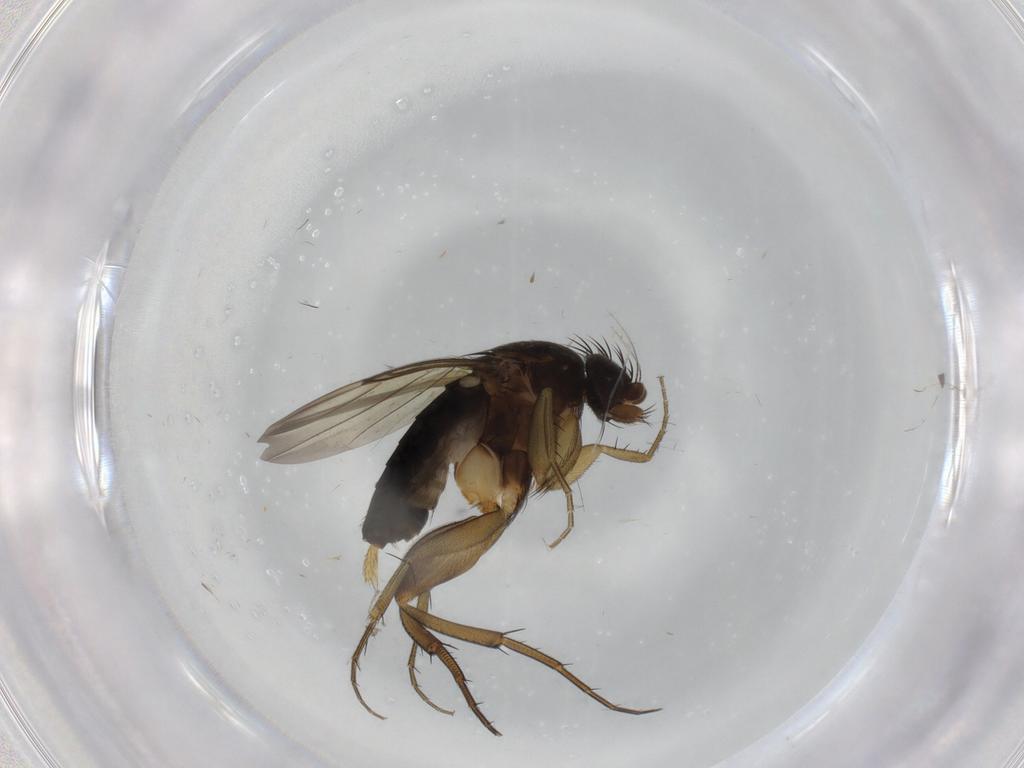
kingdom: Animalia
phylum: Arthropoda
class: Insecta
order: Diptera
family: Phoridae
